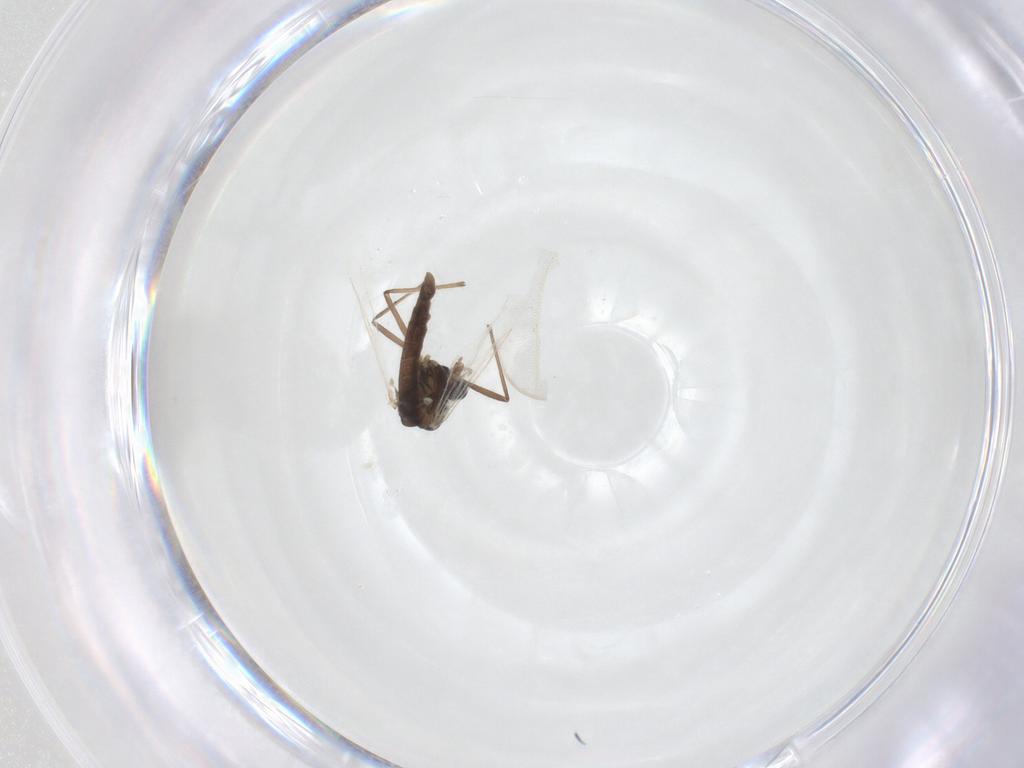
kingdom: Animalia
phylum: Arthropoda
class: Insecta
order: Diptera
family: Chironomidae
